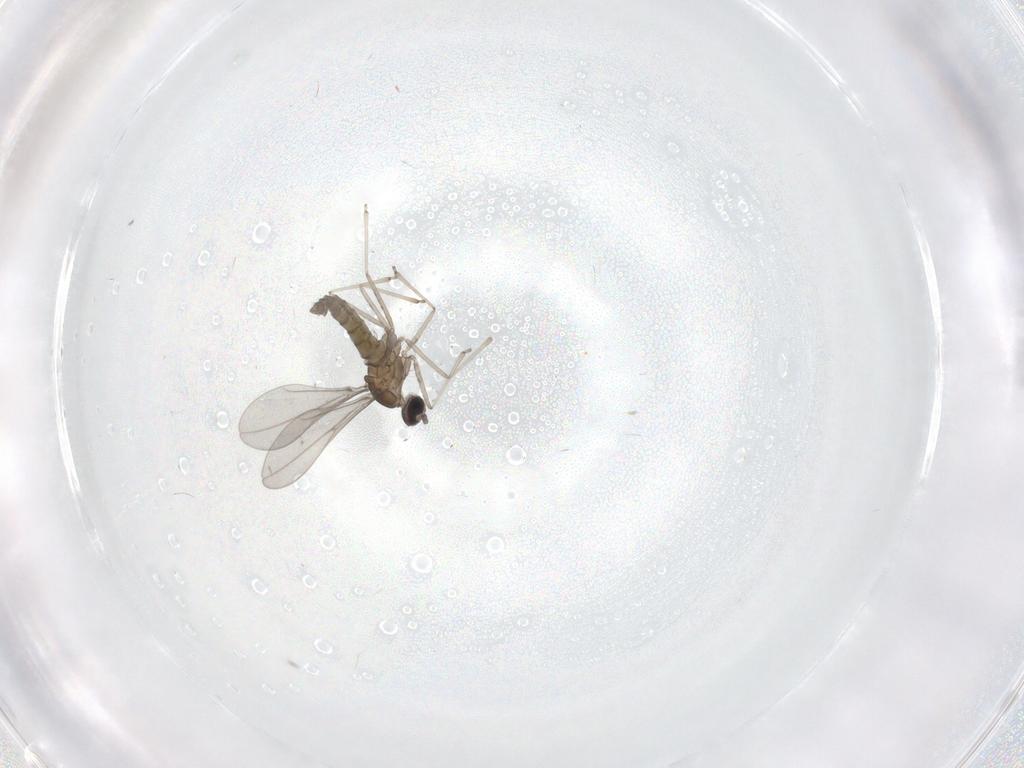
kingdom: Animalia
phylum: Arthropoda
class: Insecta
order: Diptera
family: Cecidomyiidae
